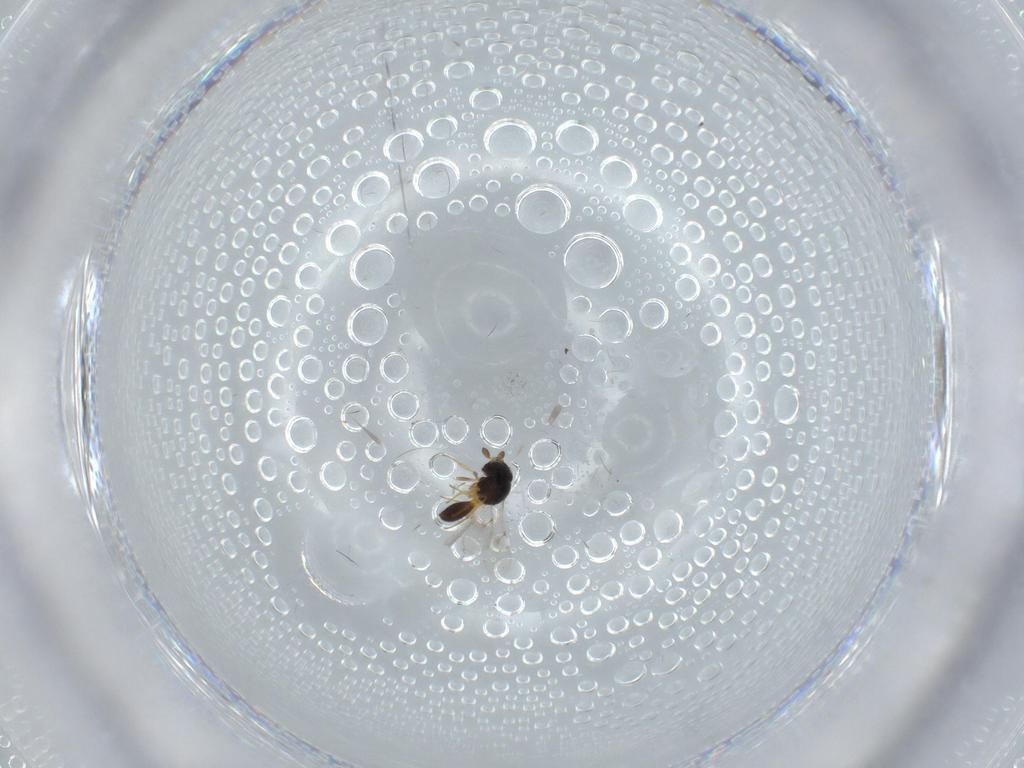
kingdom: Animalia
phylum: Arthropoda
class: Insecta
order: Hymenoptera
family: Scelionidae
